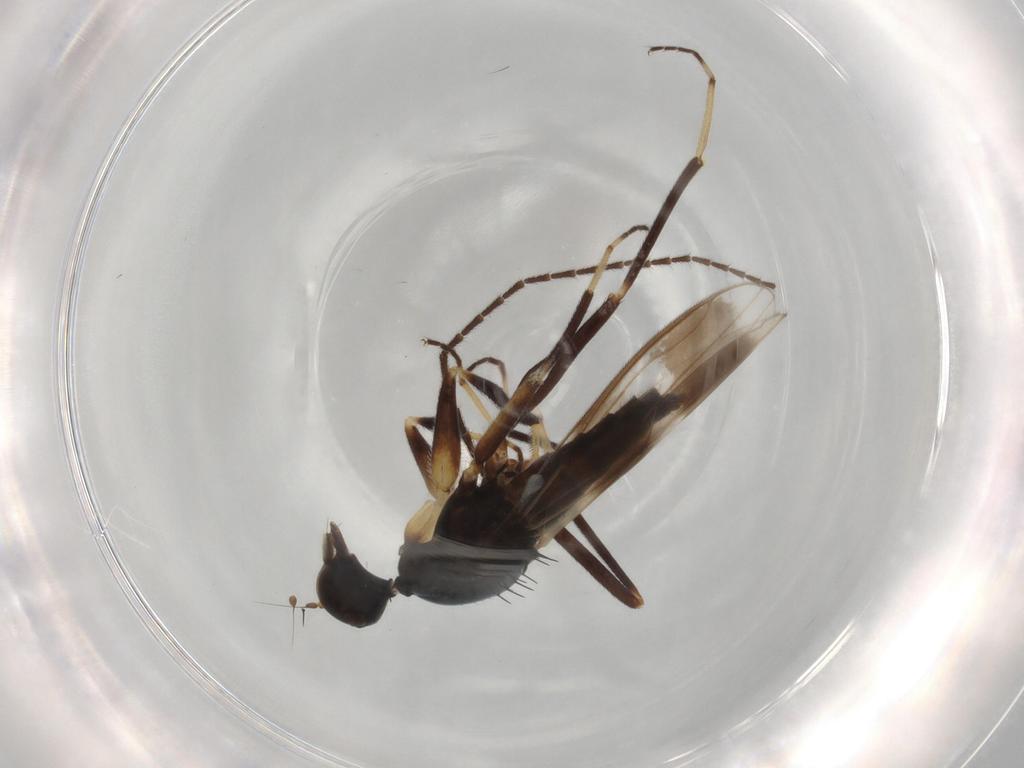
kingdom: Animalia
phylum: Arthropoda
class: Insecta
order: Diptera
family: Hybotidae
